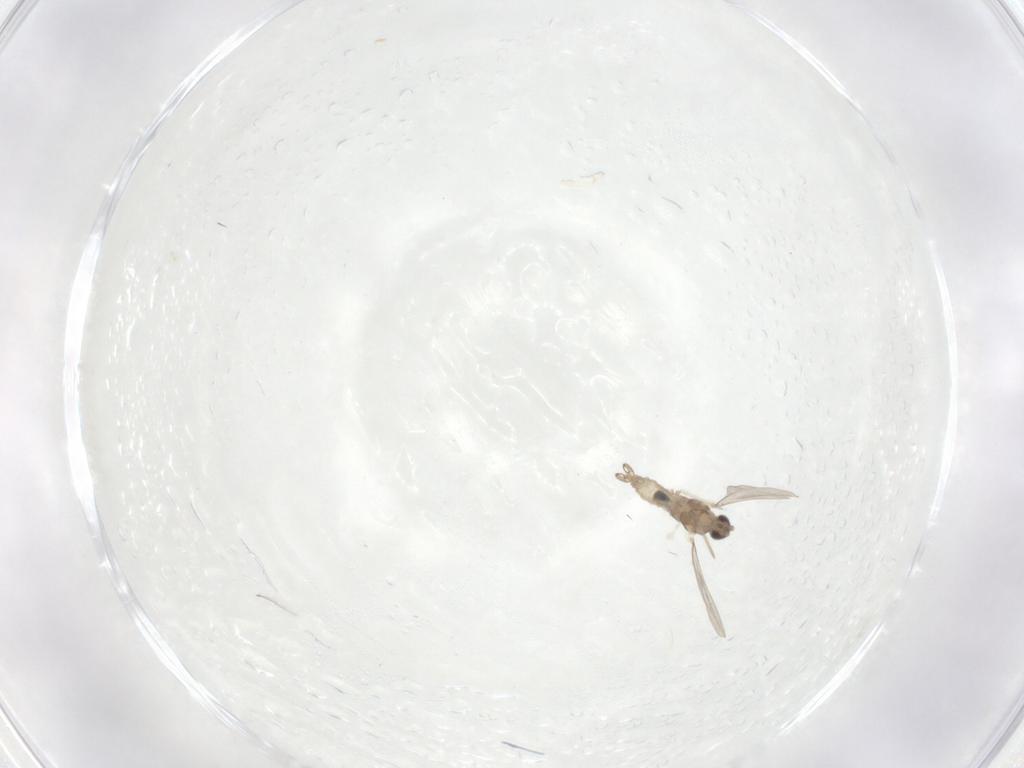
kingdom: Animalia
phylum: Arthropoda
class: Insecta
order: Diptera
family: Cecidomyiidae
